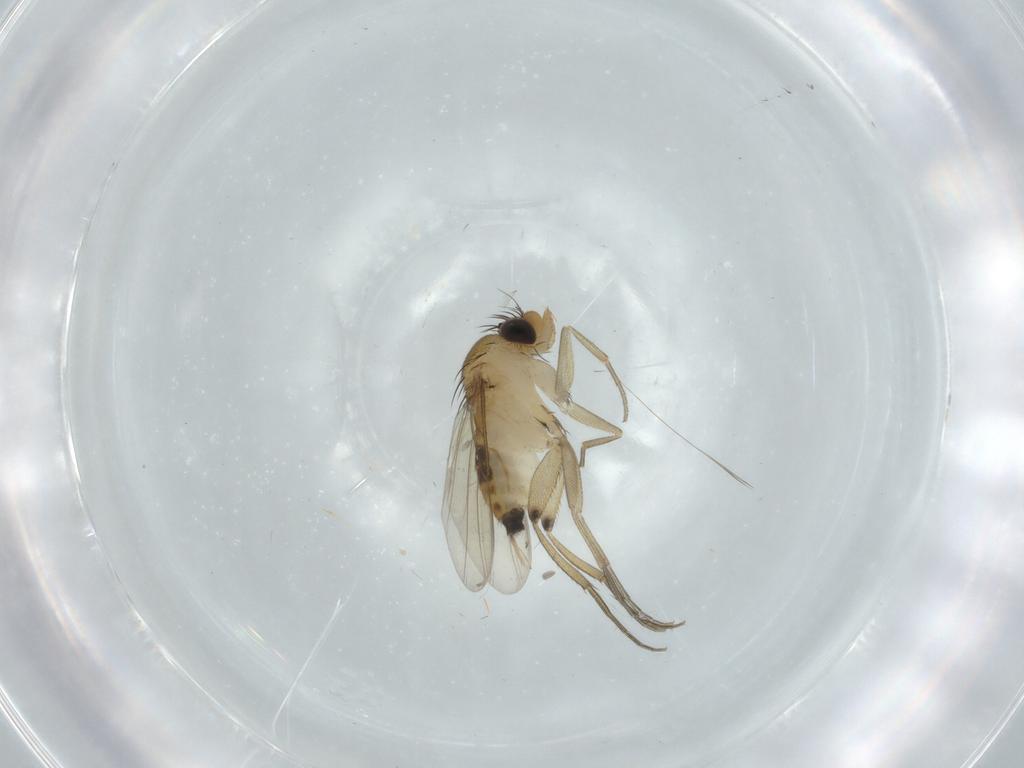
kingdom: Animalia
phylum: Arthropoda
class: Insecta
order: Diptera
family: Phoridae
